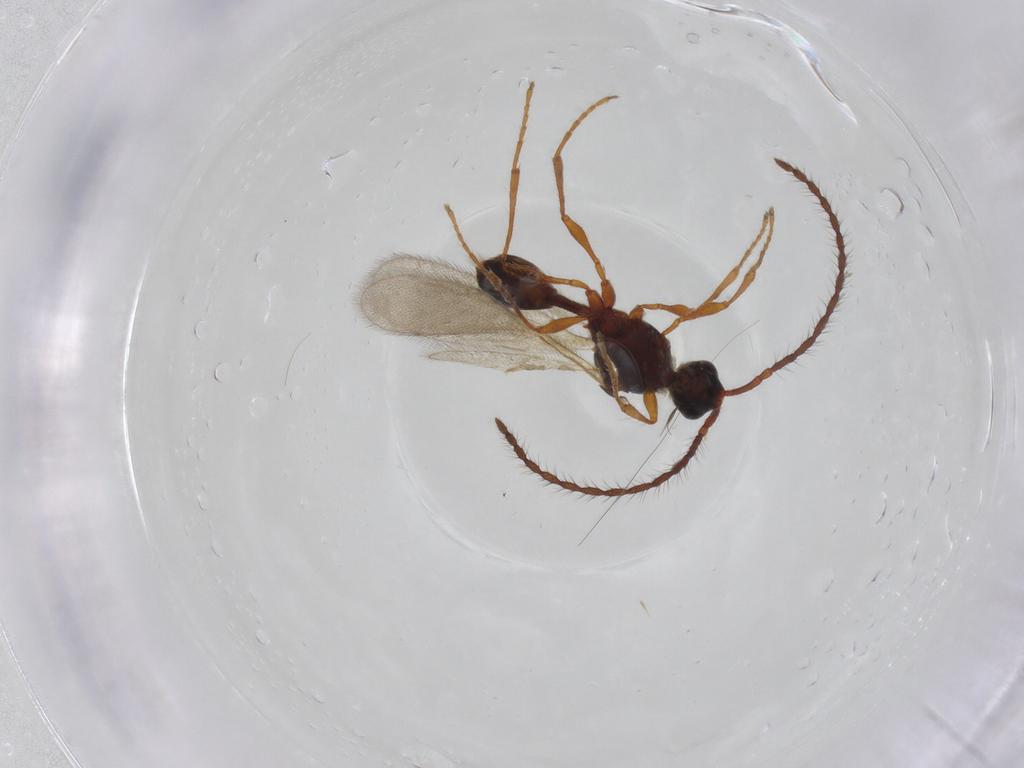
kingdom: Animalia
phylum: Arthropoda
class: Insecta
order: Hymenoptera
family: Diapriidae
